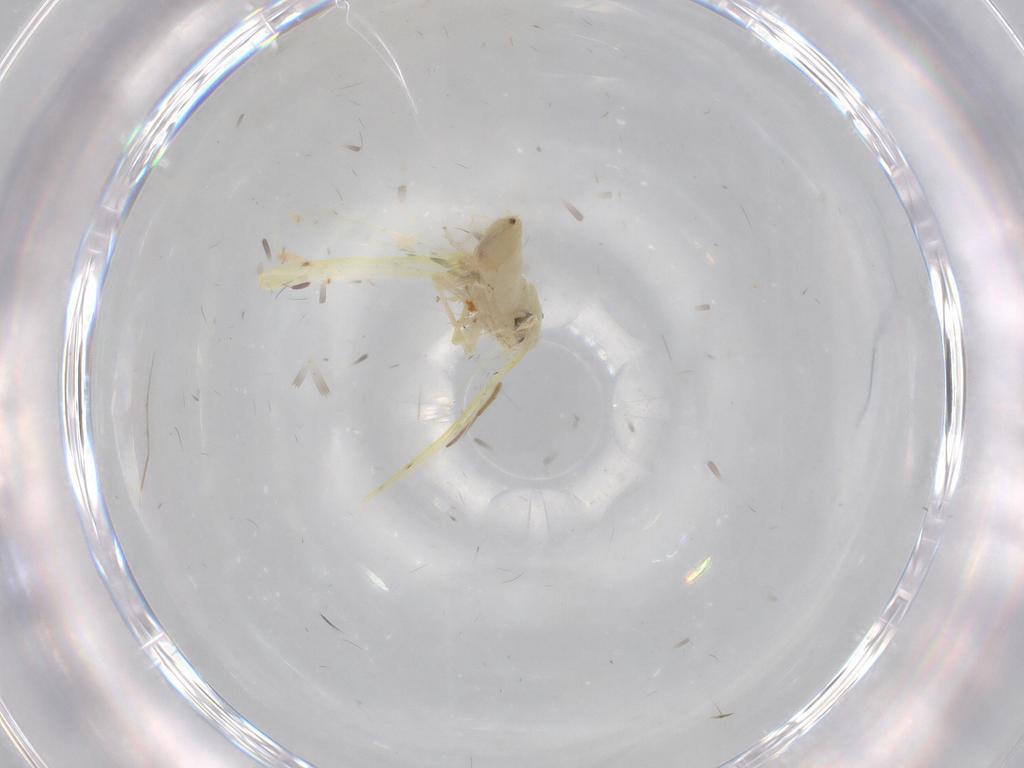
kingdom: Animalia
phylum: Arthropoda
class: Insecta
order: Hemiptera
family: Cicadellidae
